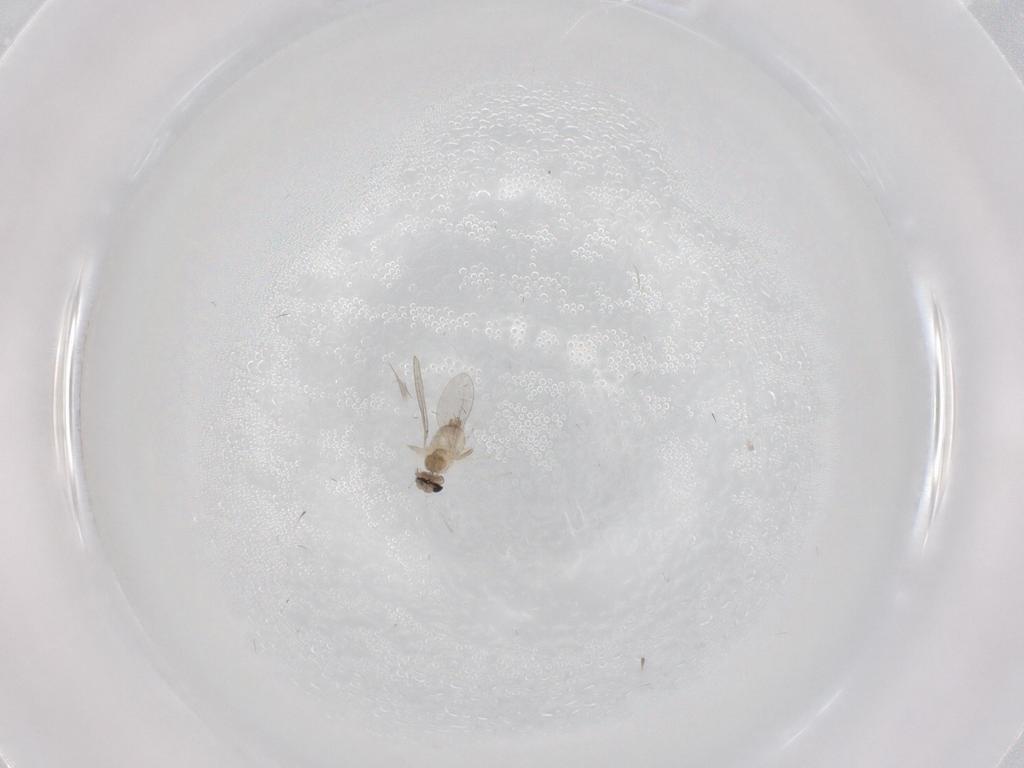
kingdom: Animalia
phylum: Arthropoda
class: Insecta
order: Diptera
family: Cecidomyiidae
